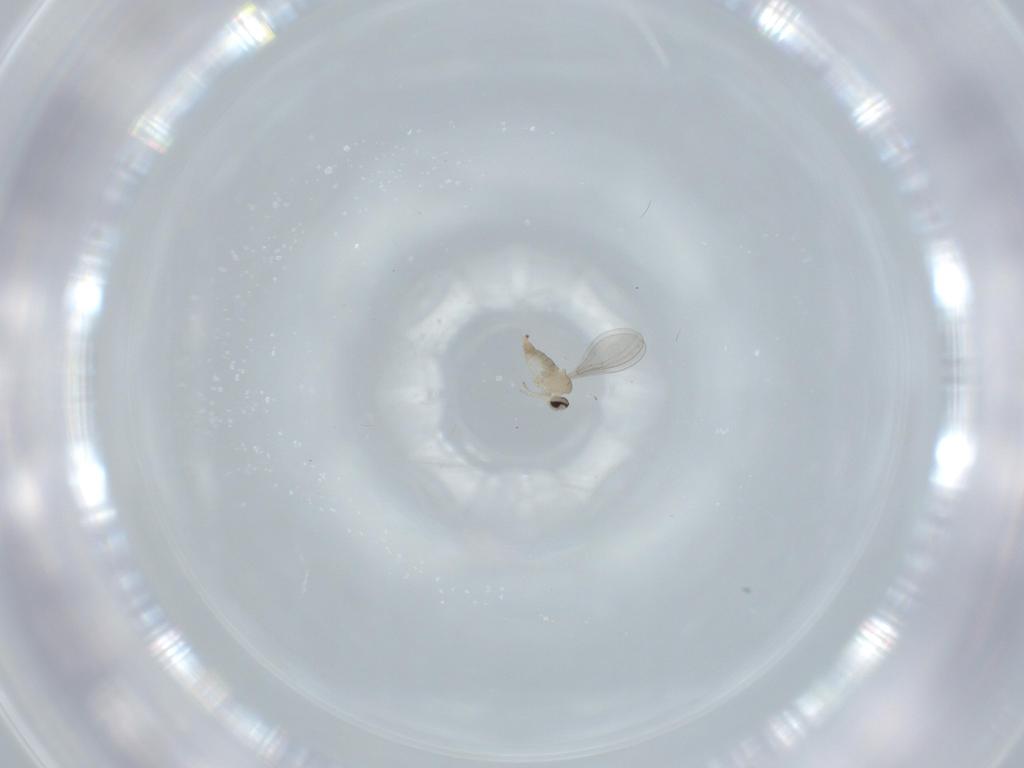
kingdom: Animalia
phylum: Arthropoda
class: Insecta
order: Diptera
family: Cecidomyiidae
